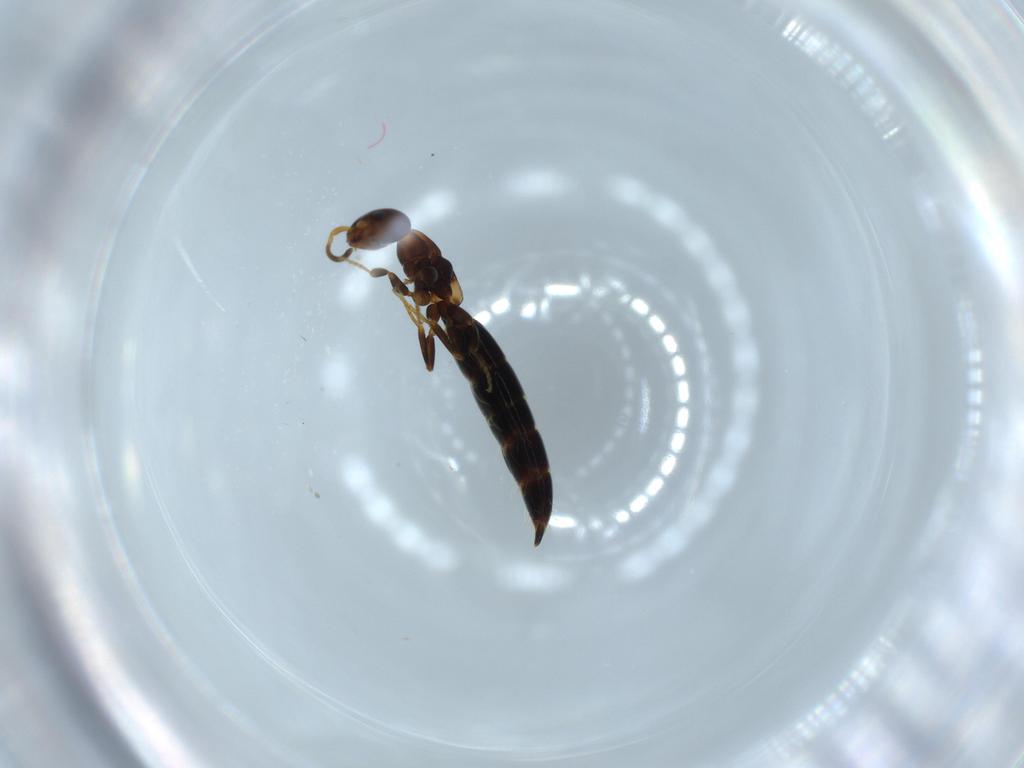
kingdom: Animalia
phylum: Arthropoda
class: Insecta
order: Hymenoptera
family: Bethylidae
